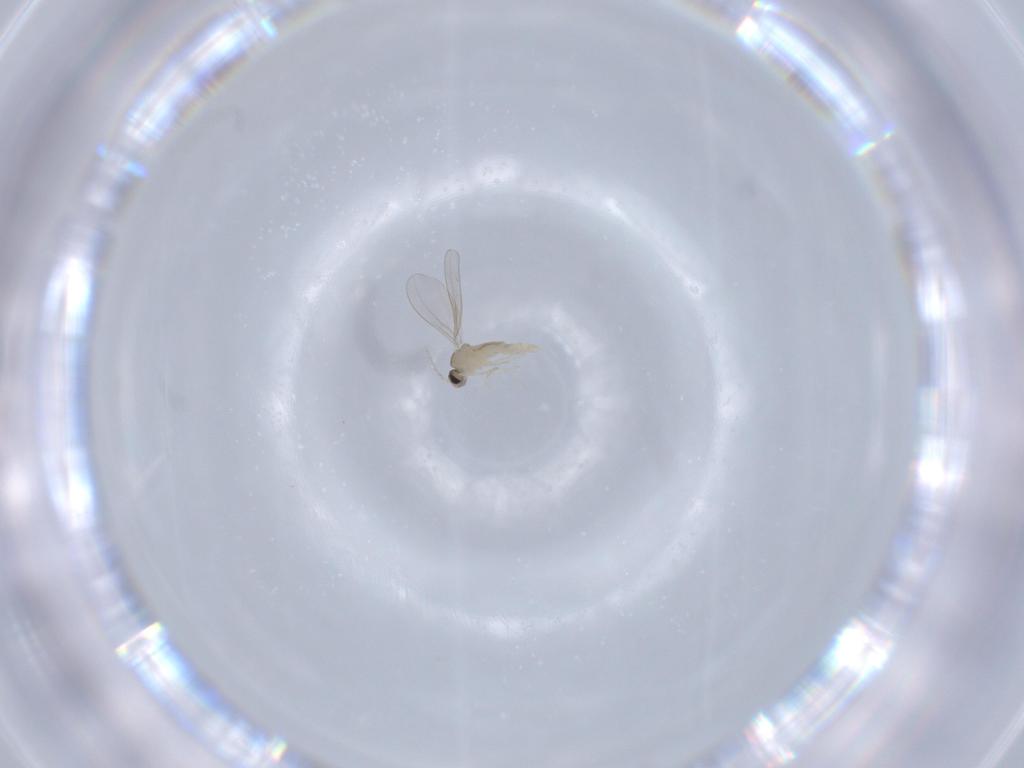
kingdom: Animalia
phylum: Arthropoda
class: Insecta
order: Diptera
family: Cecidomyiidae
